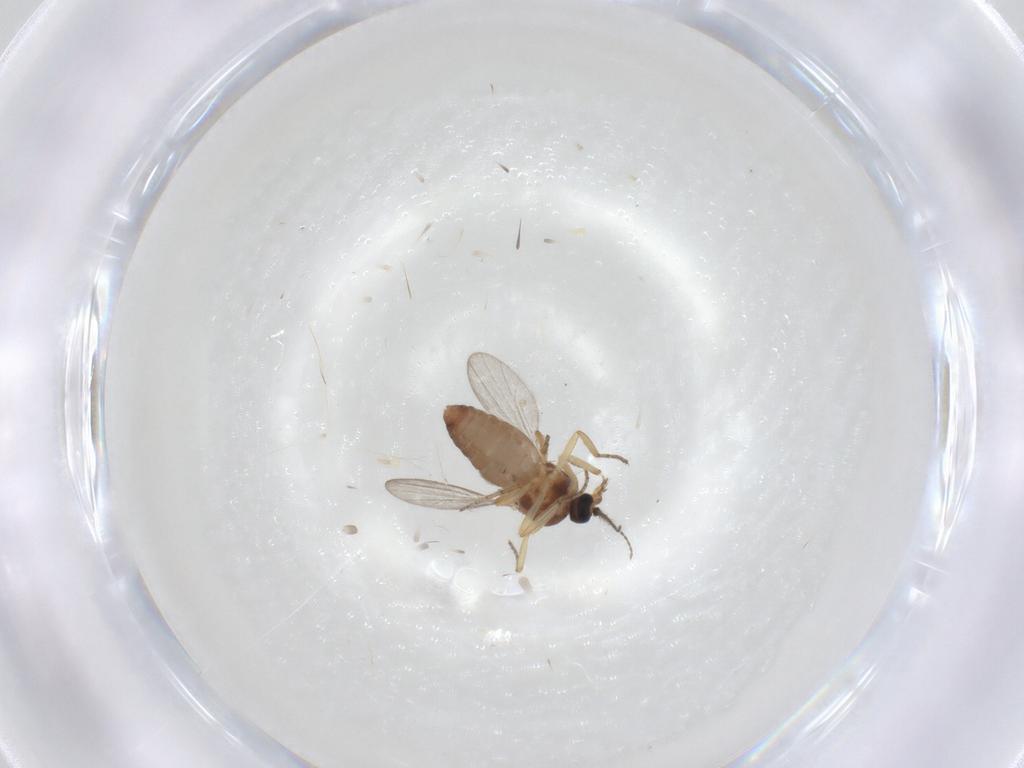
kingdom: Animalia
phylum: Arthropoda
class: Insecta
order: Diptera
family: Ceratopogonidae
